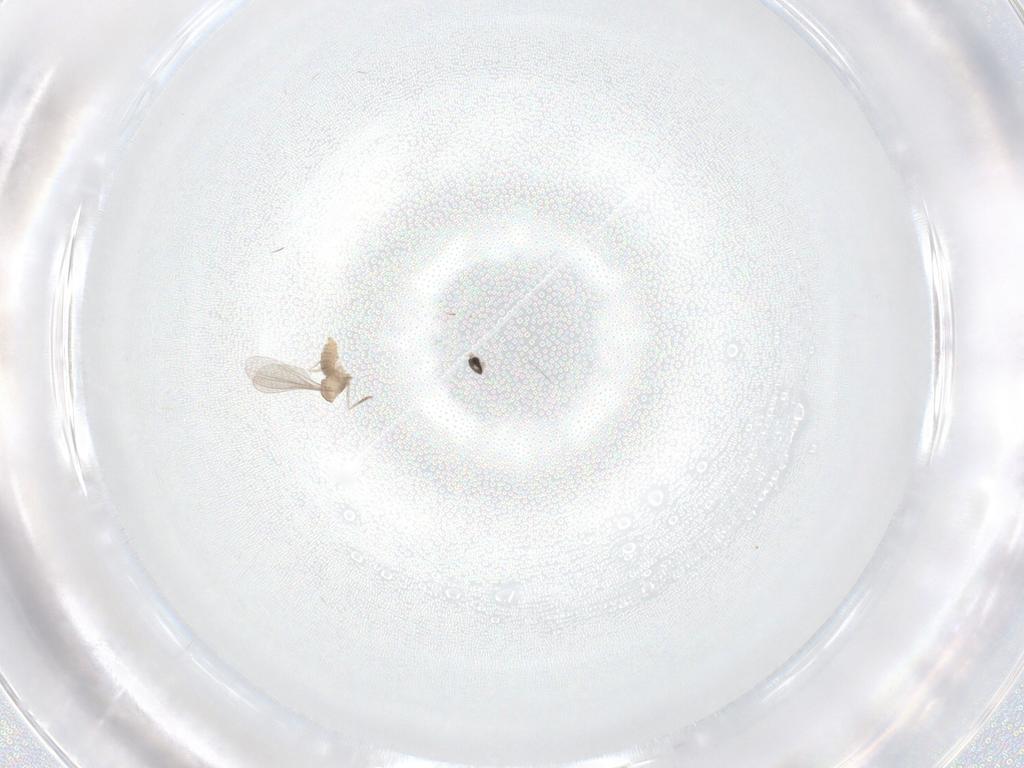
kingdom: Animalia
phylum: Arthropoda
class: Insecta
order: Diptera
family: Cecidomyiidae
